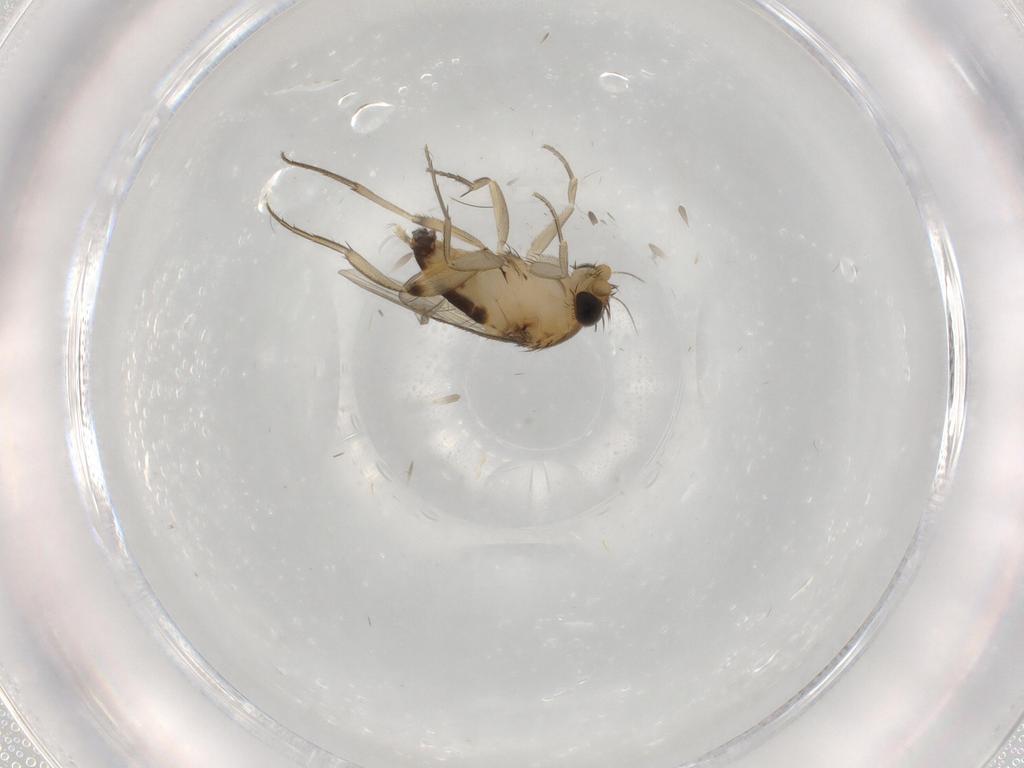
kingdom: Animalia
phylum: Arthropoda
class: Insecta
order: Diptera
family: Phoridae
